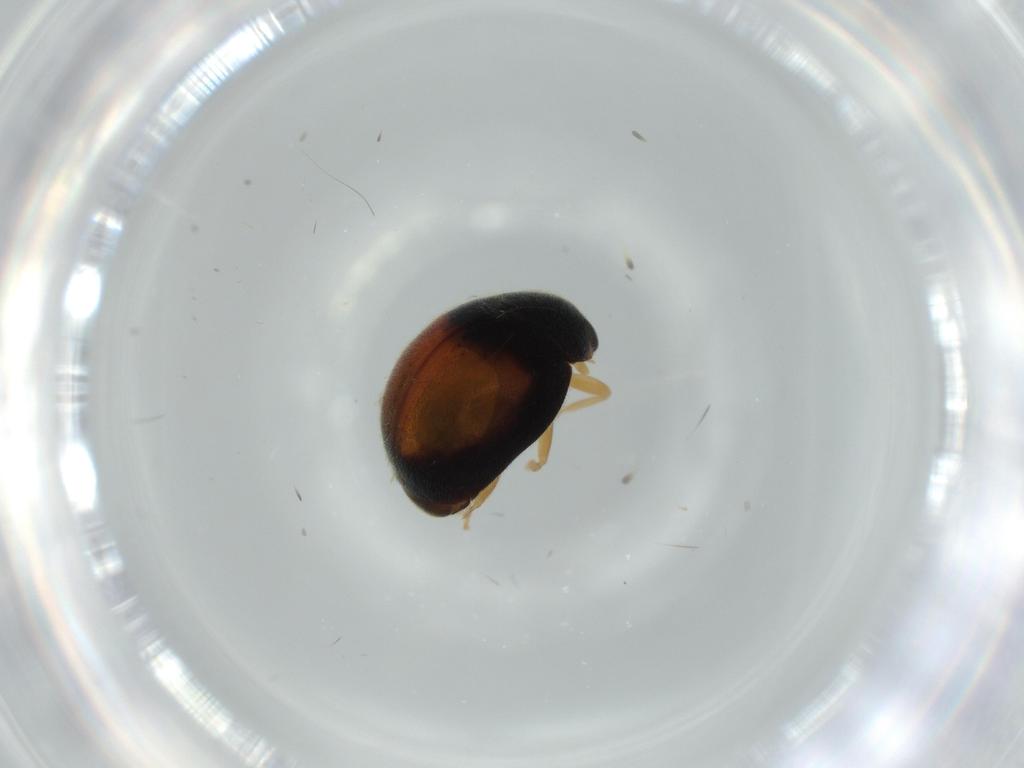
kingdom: Animalia
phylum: Arthropoda
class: Insecta
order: Coleoptera
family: Coccinellidae
